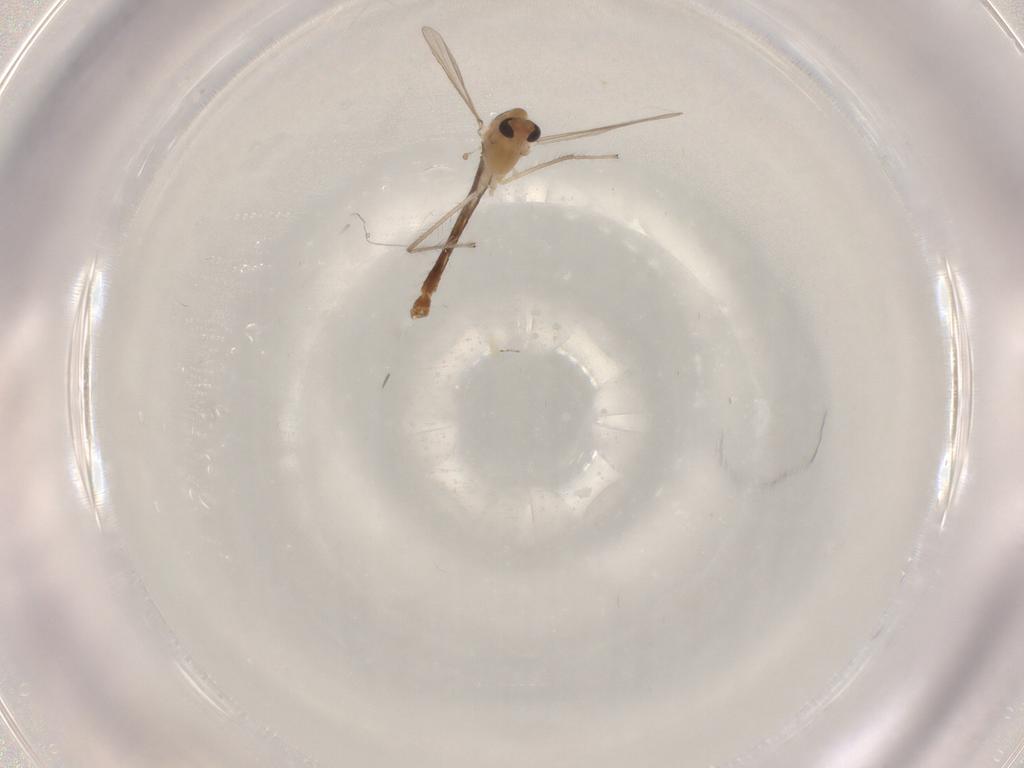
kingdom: Animalia
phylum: Arthropoda
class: Insecta
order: Diptera
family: Chironomidae
